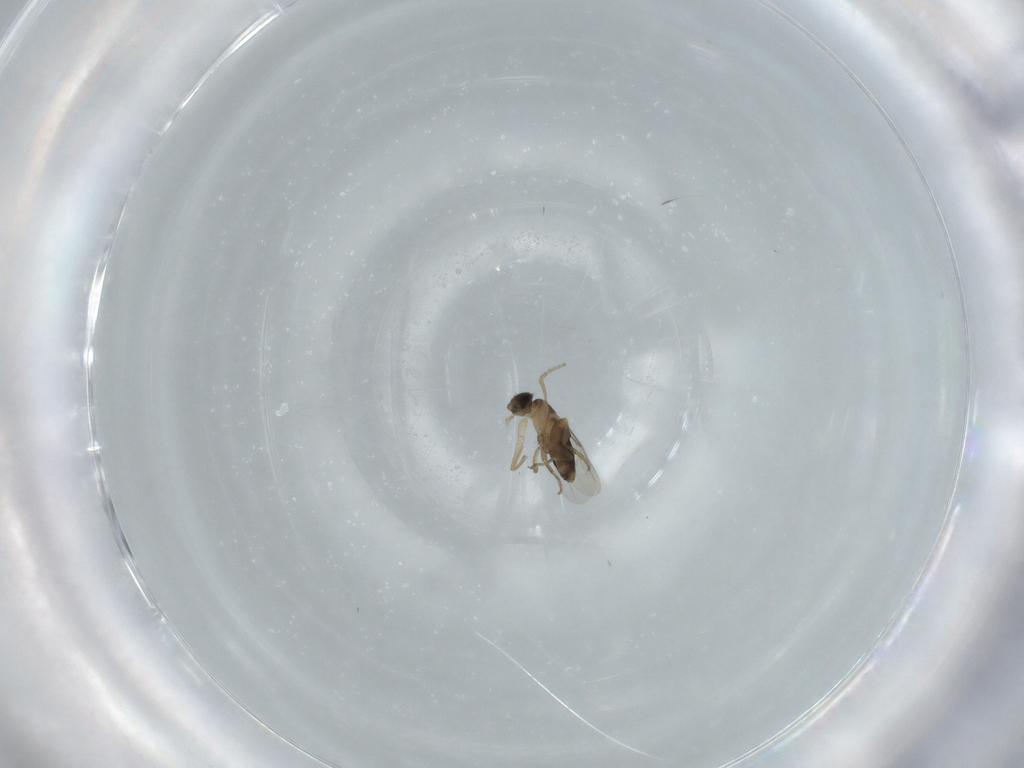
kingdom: Animalia
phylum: Arthropoda
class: Insecta
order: Diptera
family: Phoridae
